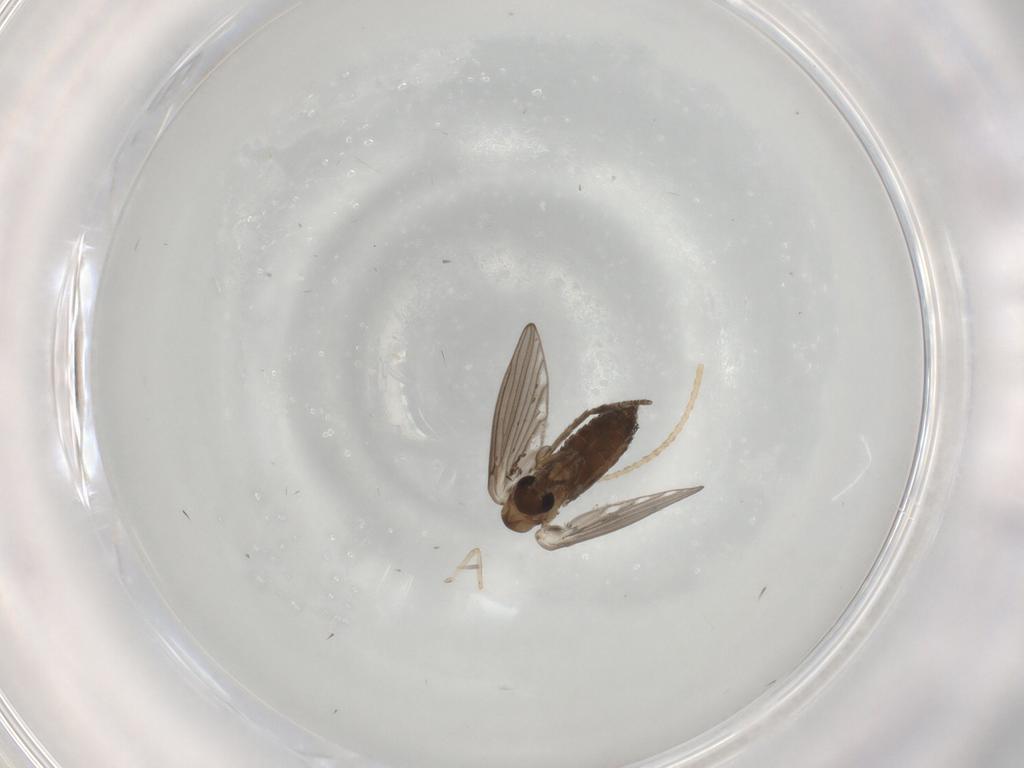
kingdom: Animalia
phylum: Arthropoda
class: Insecta
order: Diptera
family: Psychodidae
